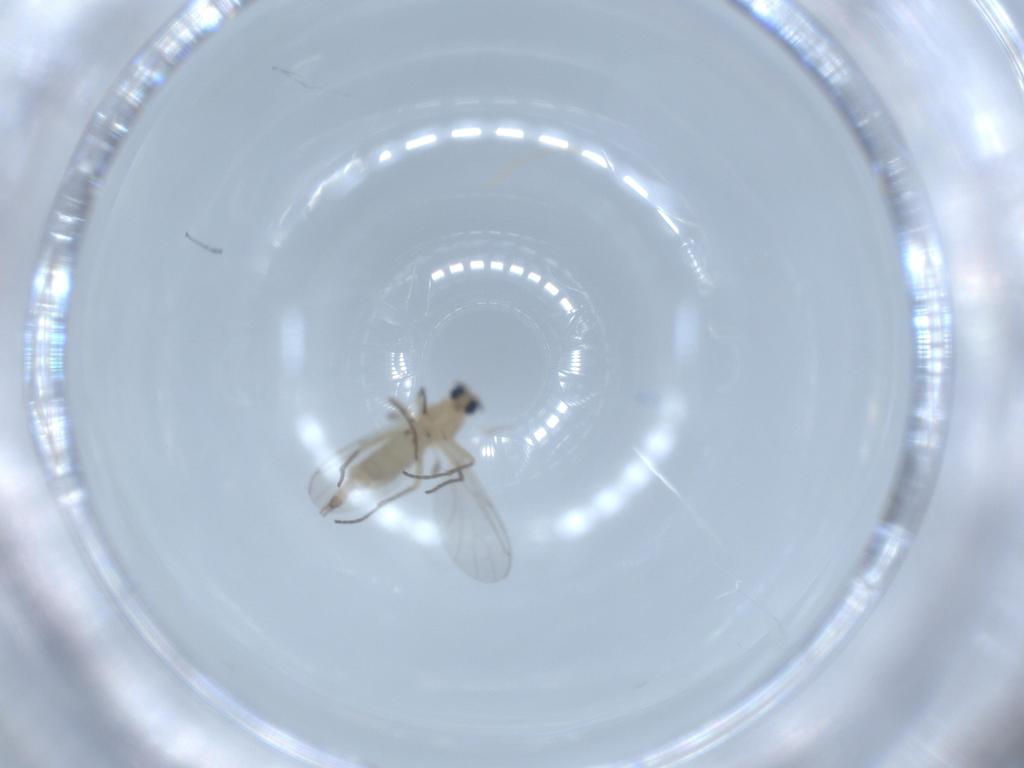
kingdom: Animalia
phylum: Arthropoda
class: Insecta
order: Diptera
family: Sciaridae
